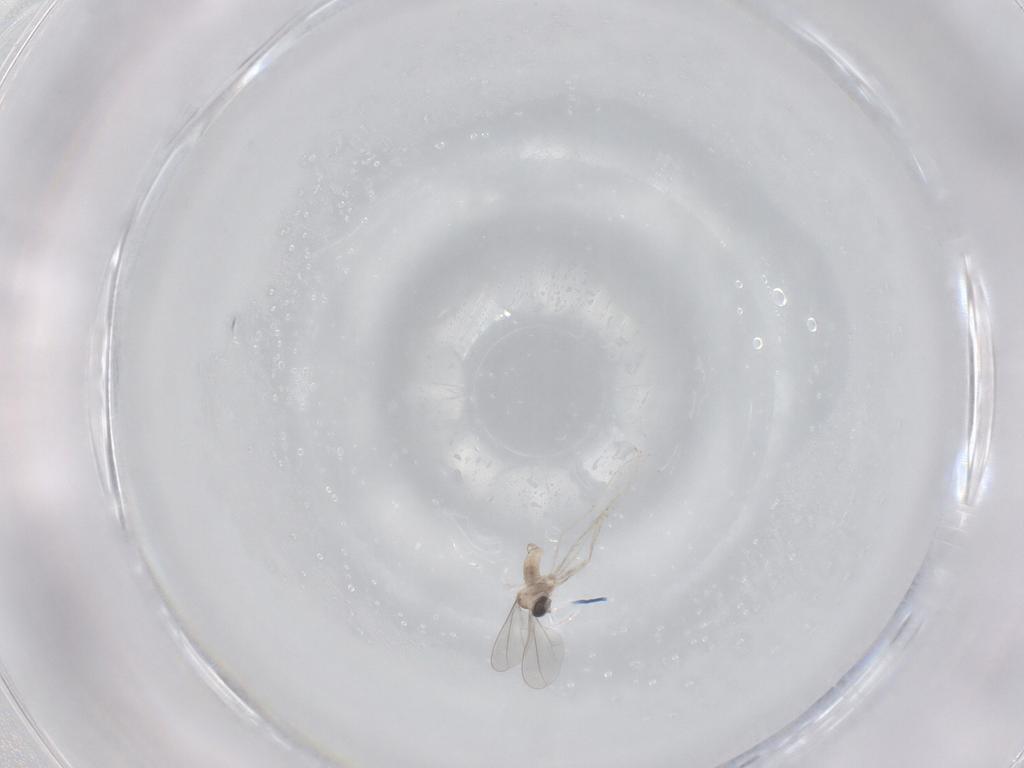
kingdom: Animalia
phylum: Arthropoda
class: Insecta
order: Diptera
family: Cecidomyiidae
